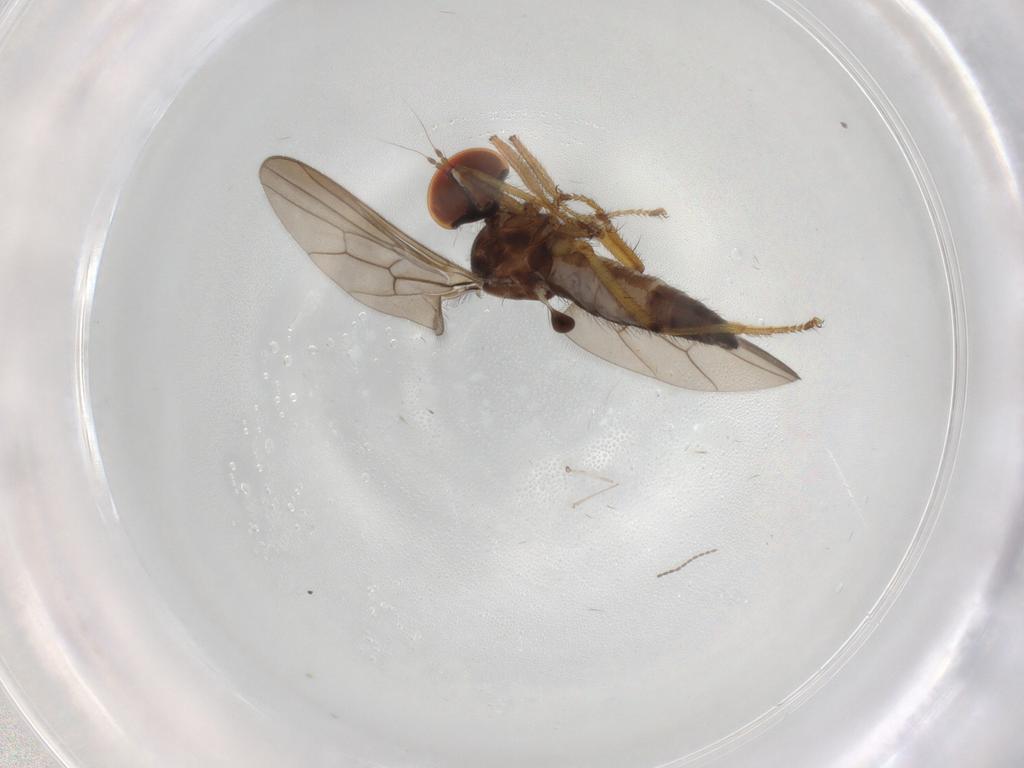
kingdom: Animalia
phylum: Arthropoda
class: Insecta
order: Diptera
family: Hybotidae
